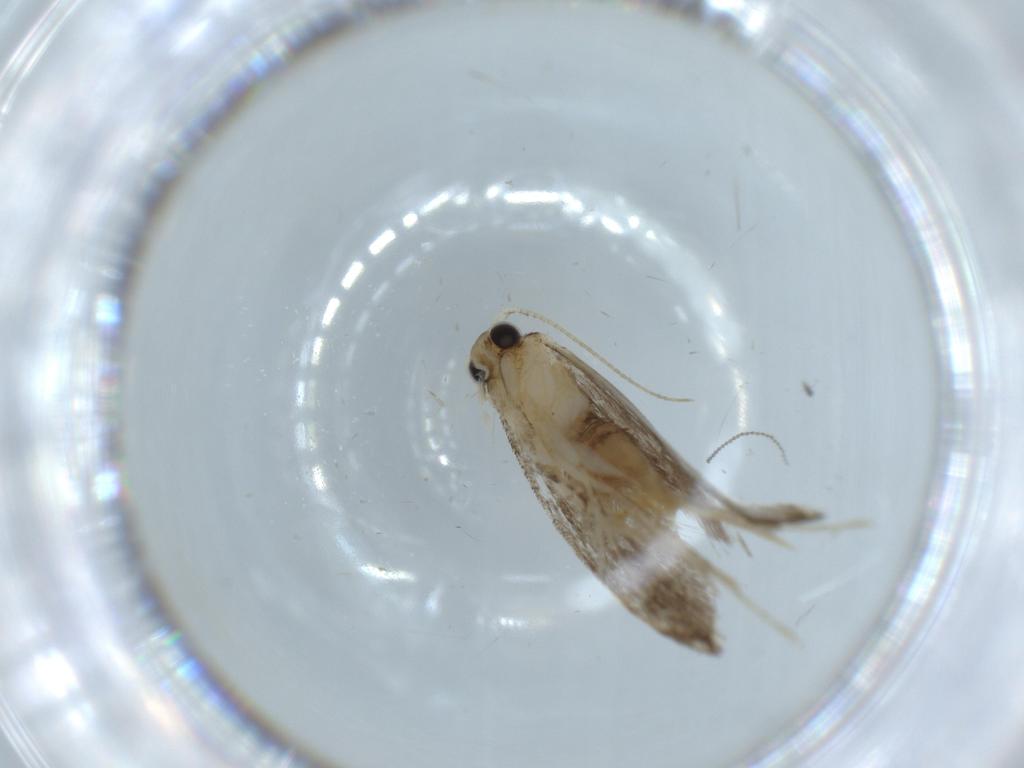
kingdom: Animalia
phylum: Arthropoda
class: Insecta
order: Lepidoptera
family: Tineidae
